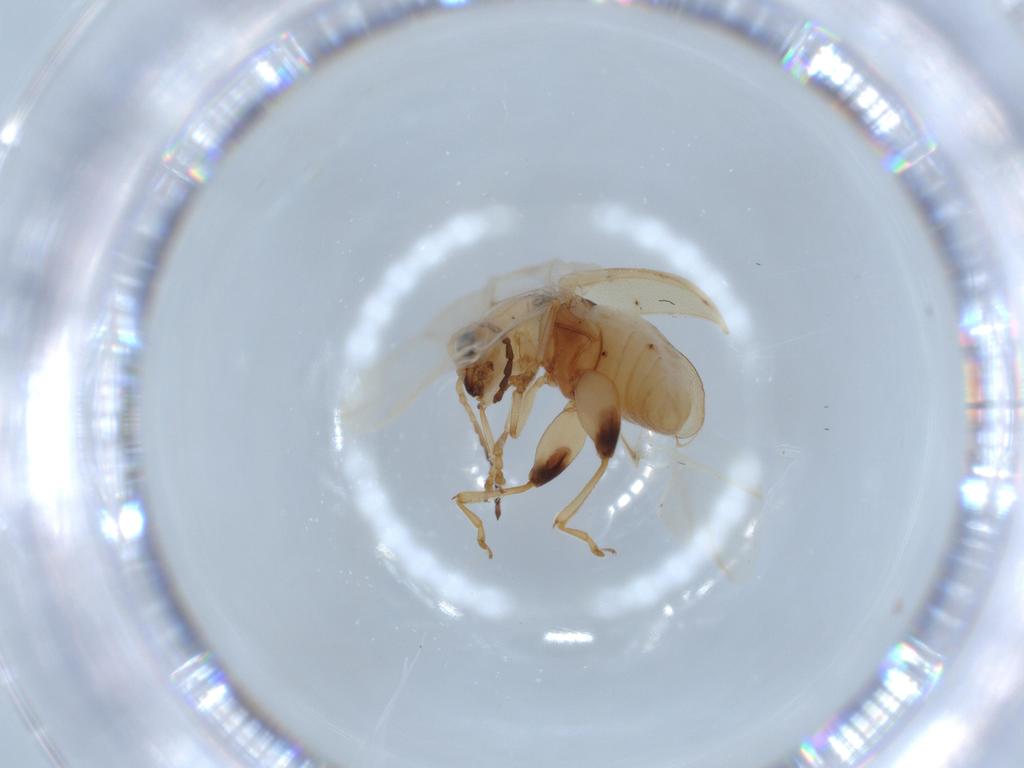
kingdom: Animalia
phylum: Arthropoda
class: Insecta
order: Coleoptera
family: Chrysomelidae
